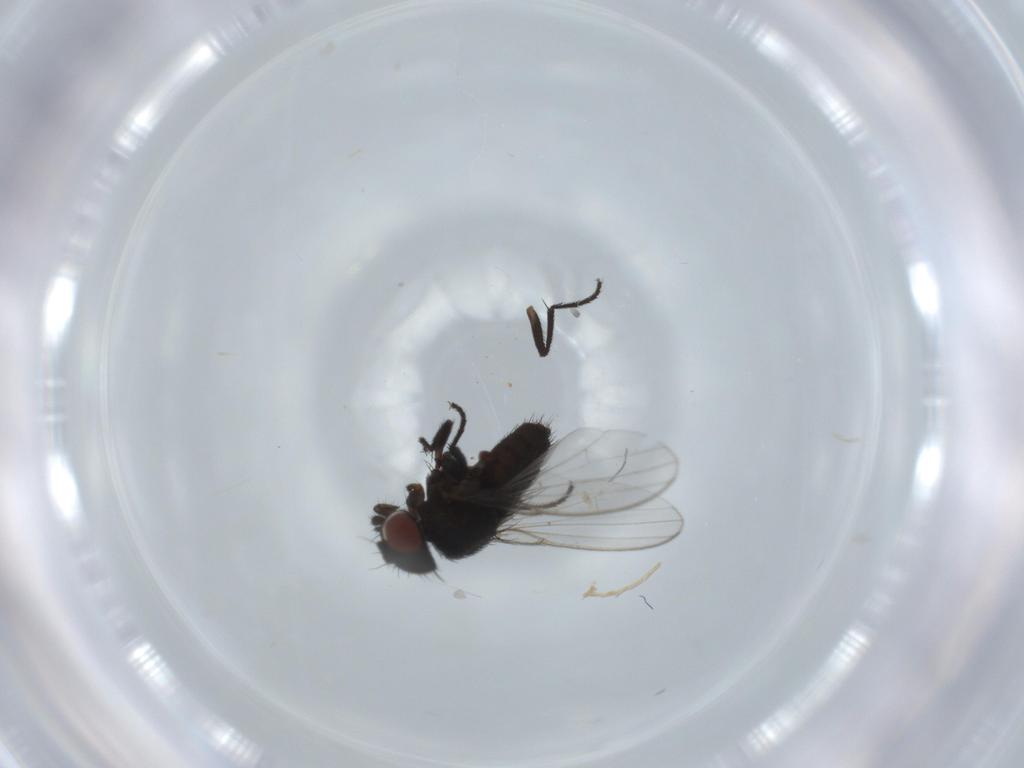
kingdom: Animalia
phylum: Arthropoda
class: Insecta
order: Diptera
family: Milichiidae
